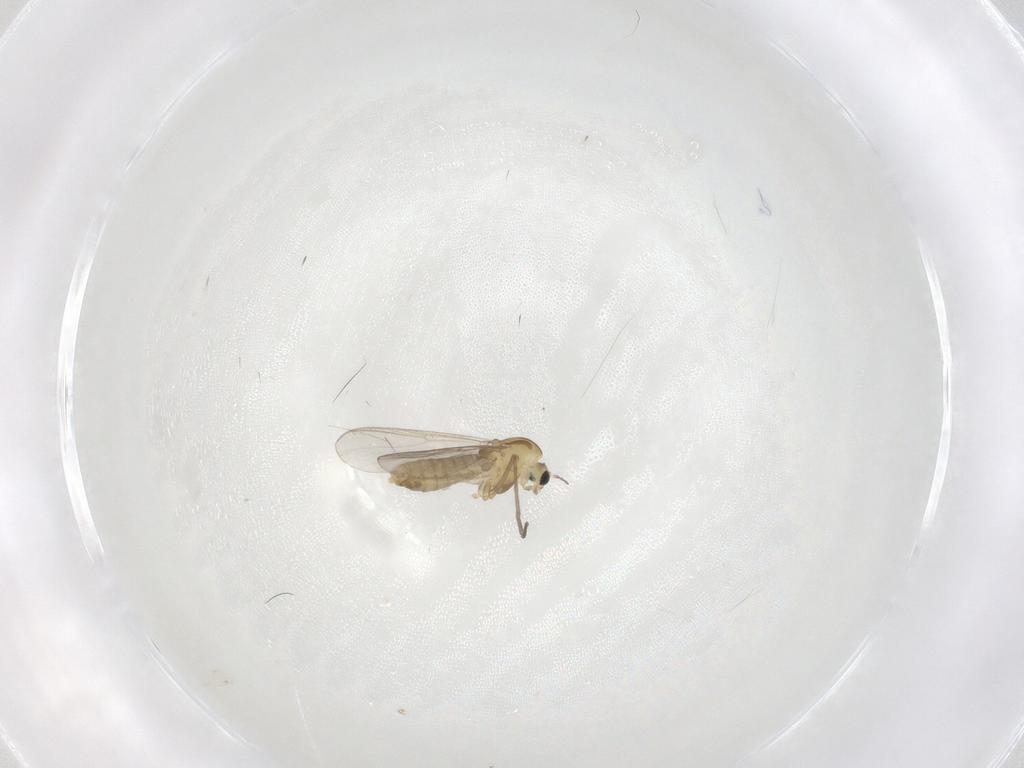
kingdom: Animalia
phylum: Arthropoda
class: Insecta
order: Diptera
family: Chironomidae
